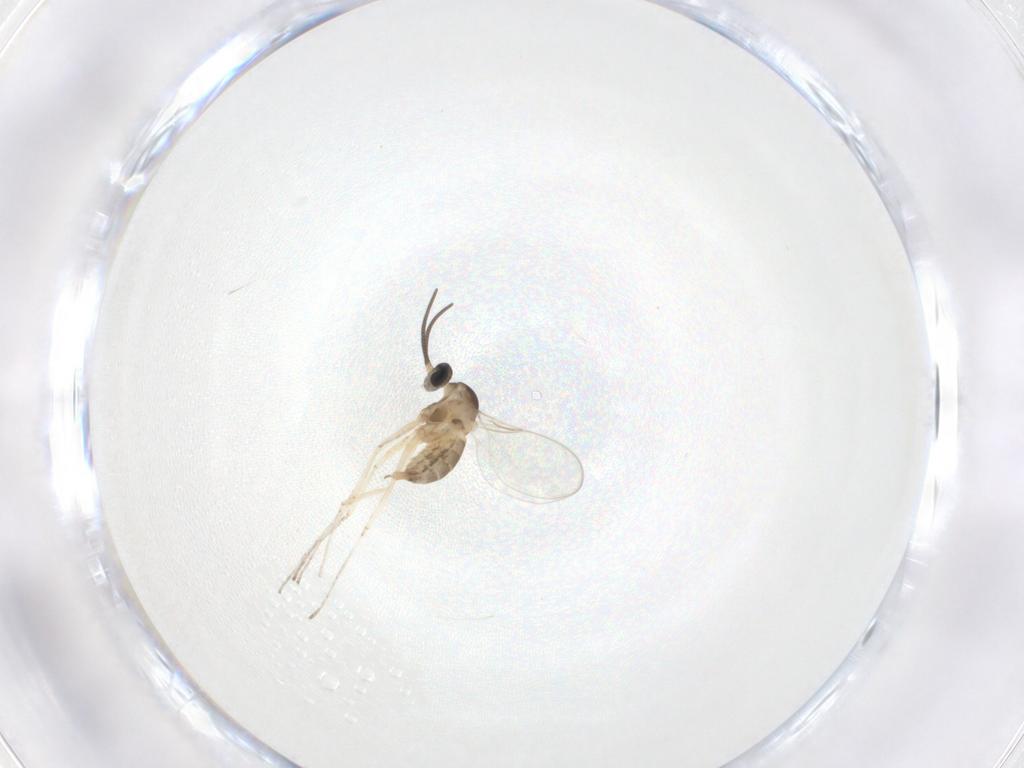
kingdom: Animalia
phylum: Arthropoda
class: Insecta
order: Diptera
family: Cecidomyiidae
